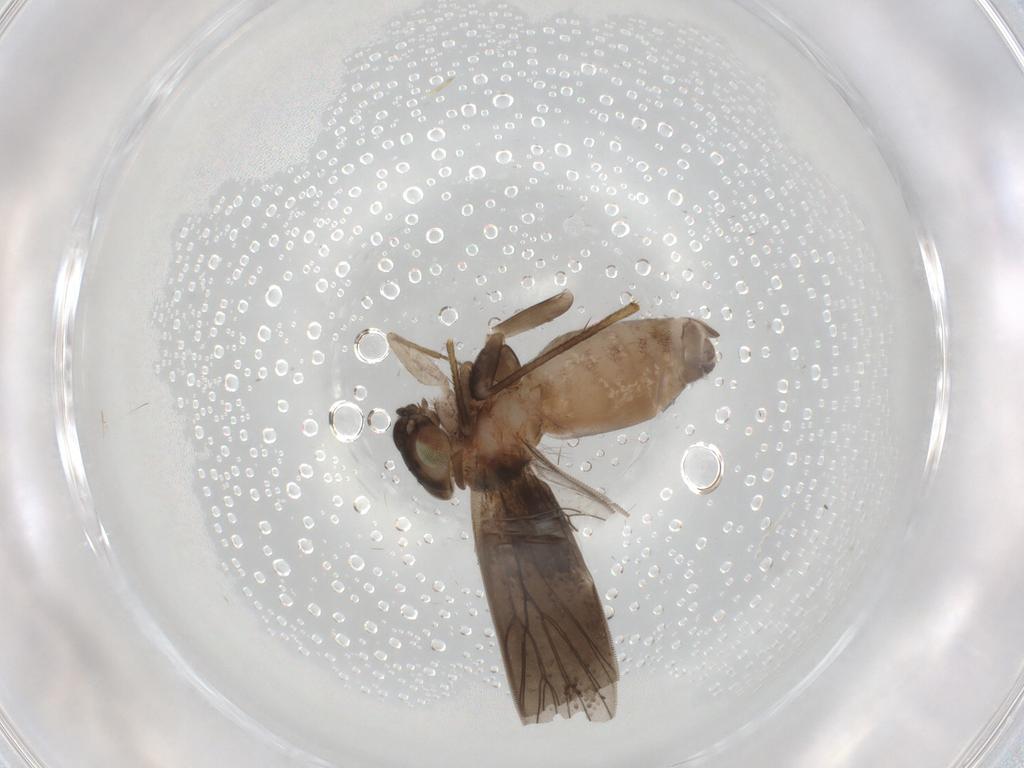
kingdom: Animalia
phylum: Arthropoda
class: Insecta
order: Psocodea
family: Lepidopsocidae
